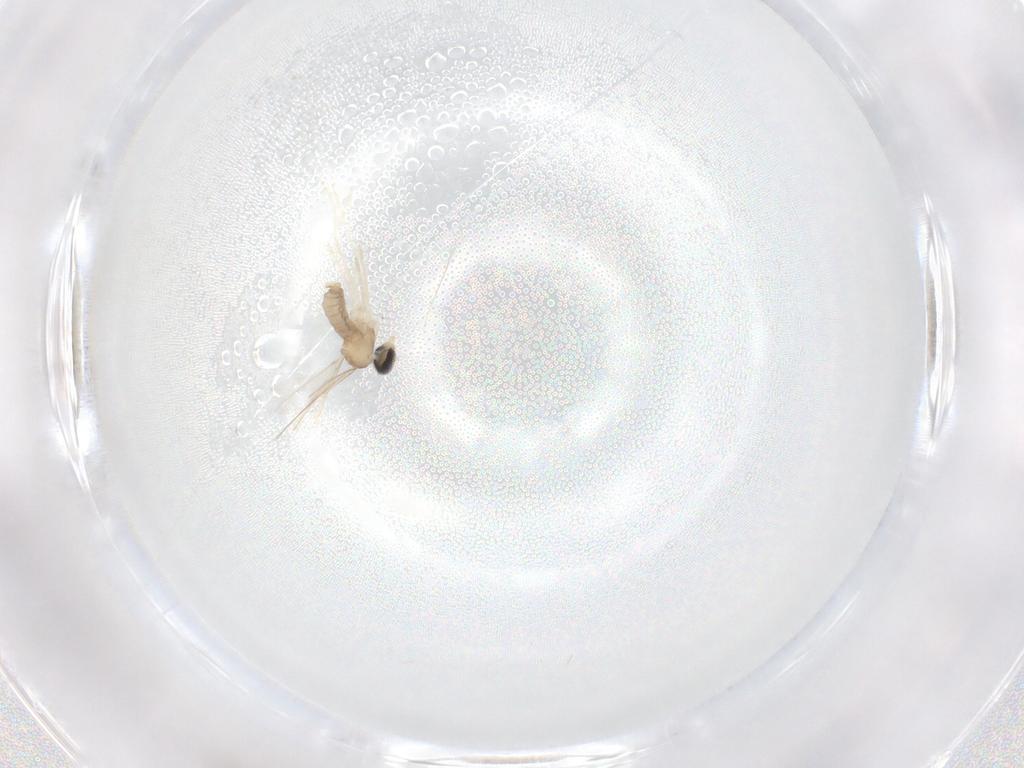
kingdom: Animalia
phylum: Arthropoda
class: Insecta
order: Diptera
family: Cecidomyiidae
